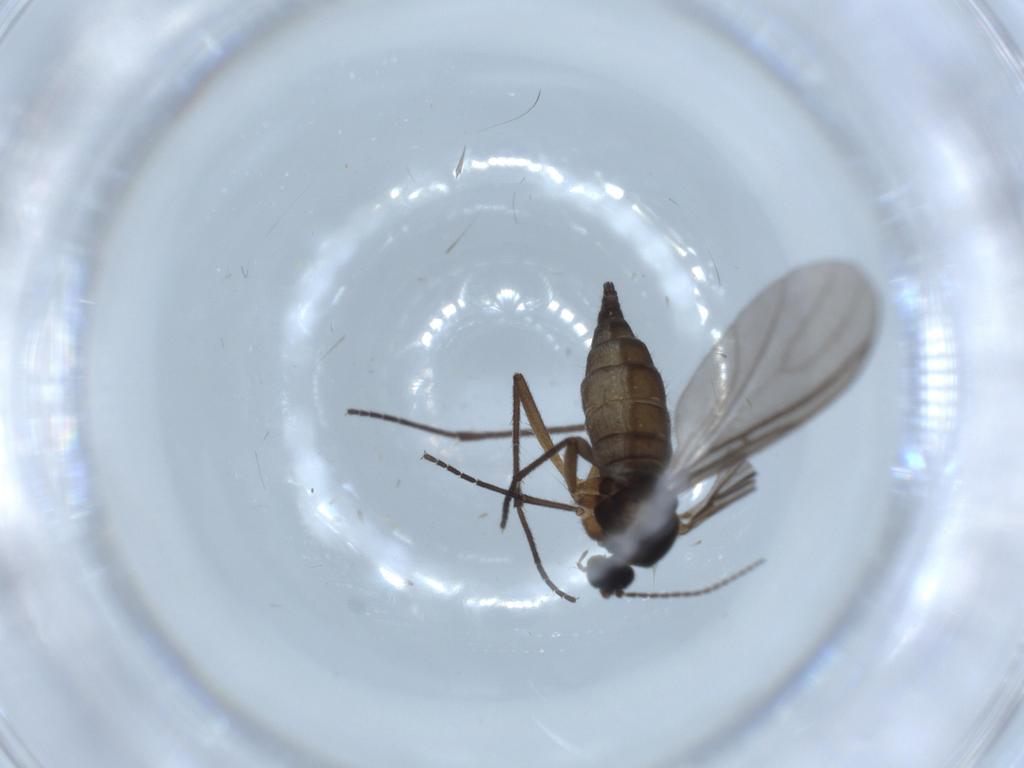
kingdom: Animalia
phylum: Arthropoda
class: Insecta
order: Diptera
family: Sciaridae
